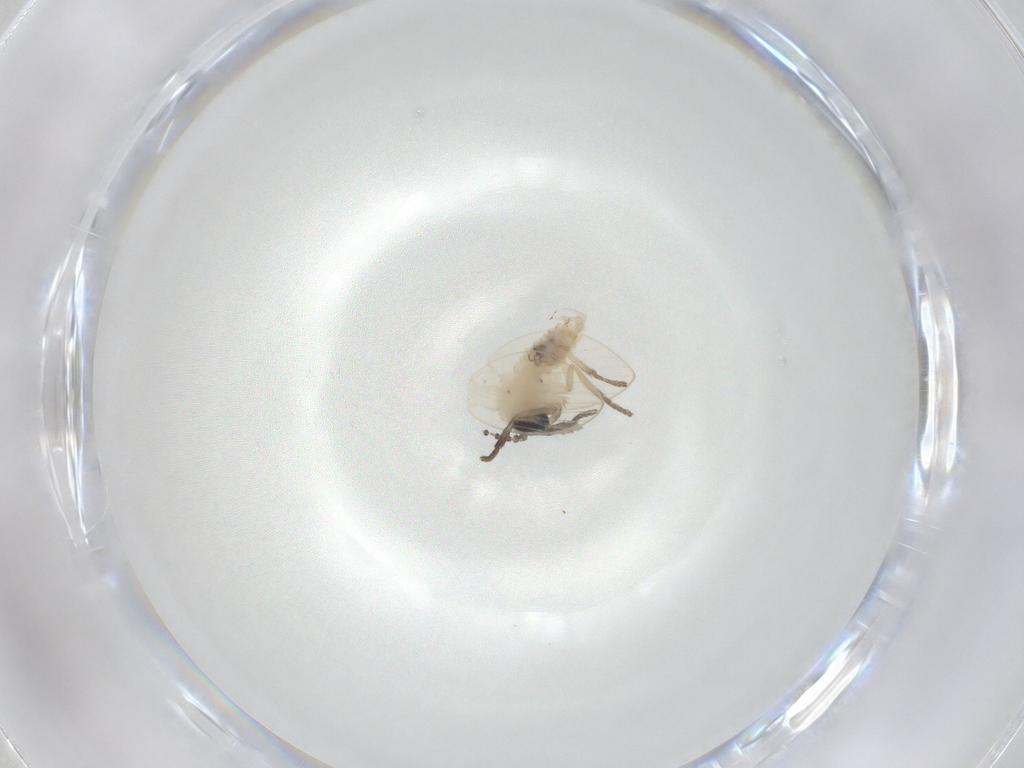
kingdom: Animalia
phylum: Arthropoda
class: Insecta
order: Diptera
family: Psychodidae
